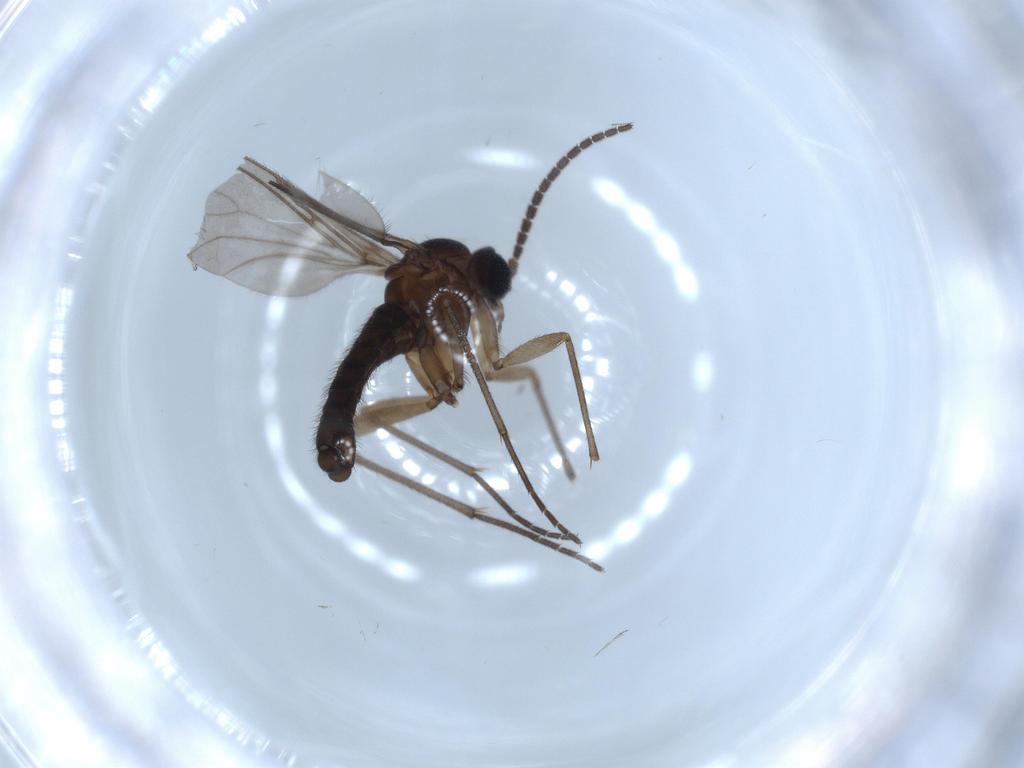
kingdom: Animalia
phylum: Arthropoda
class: Insecta
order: Diptera
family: Sciaridae
